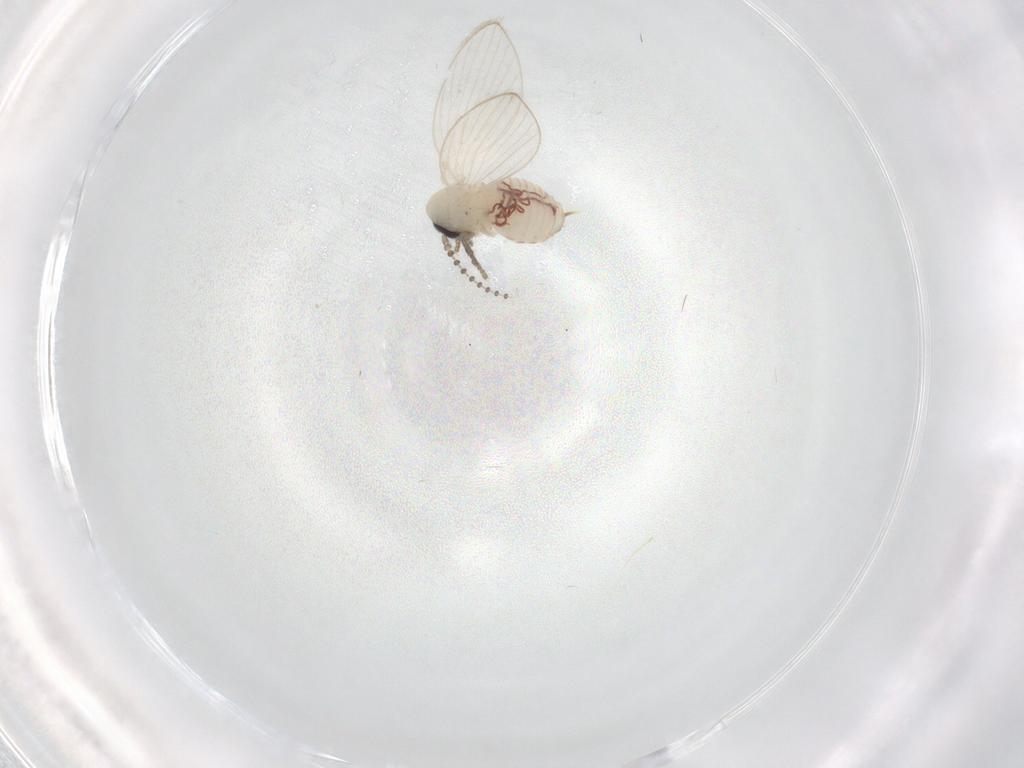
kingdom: Animalia
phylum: Arthropoda
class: Insecta
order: Diptera
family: Psychodidae
